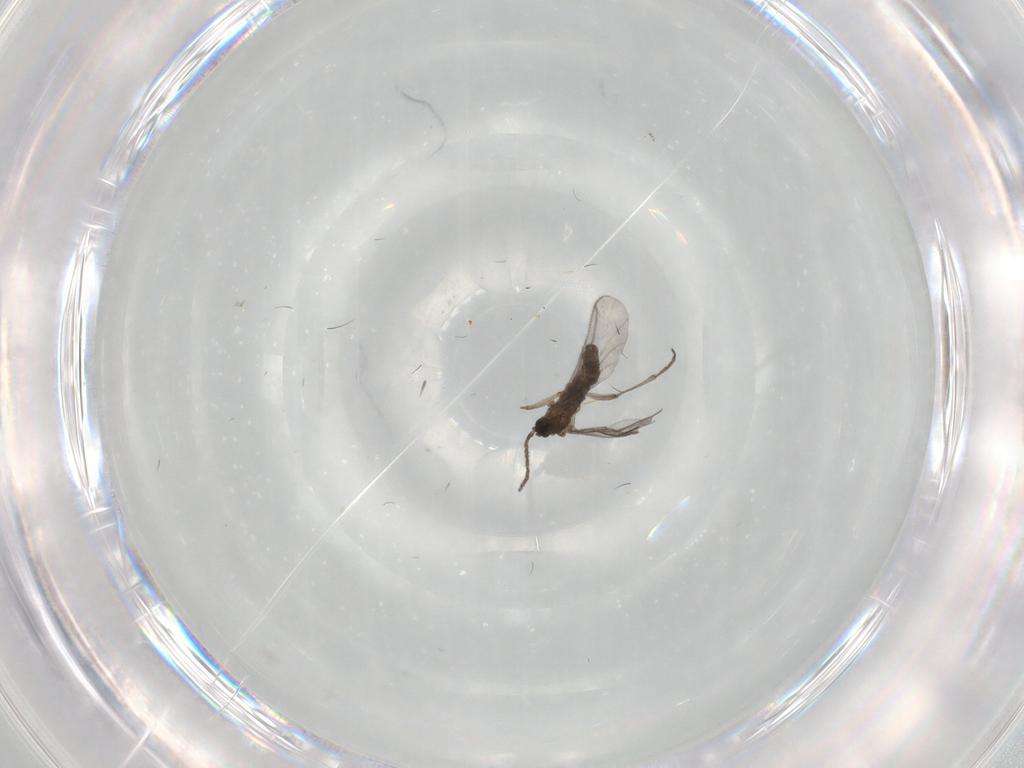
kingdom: Animalia
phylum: Arthropoda
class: Insecta
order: Diptera
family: Sciaridae
